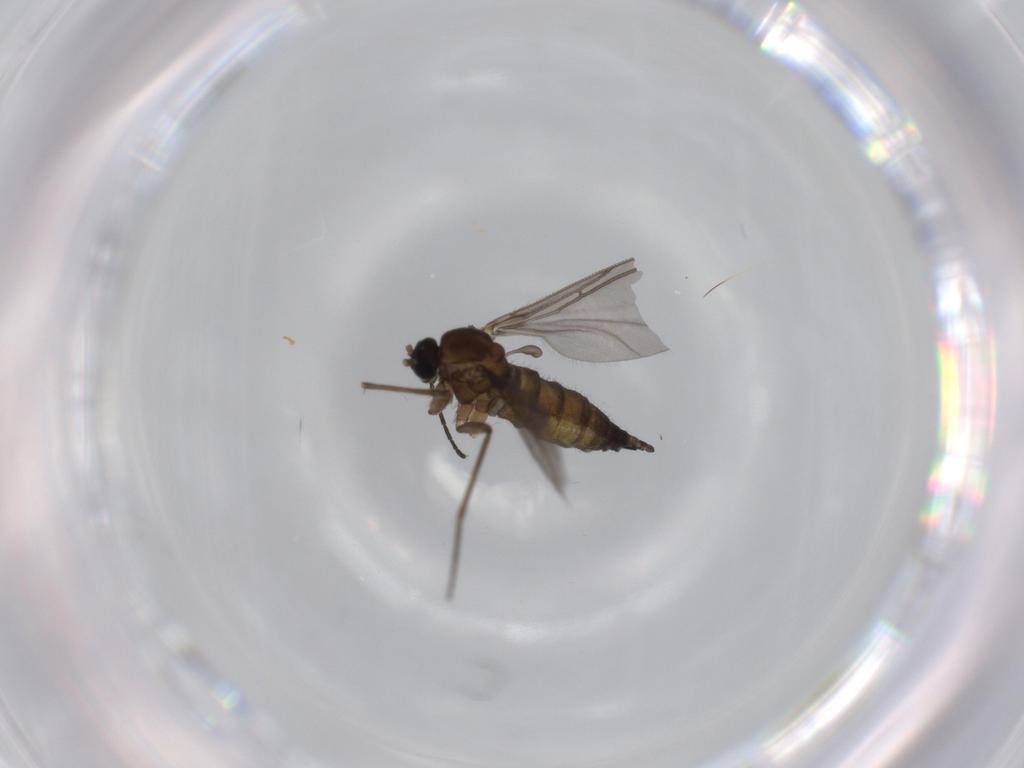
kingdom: Animalia
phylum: Arthropoda
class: Insecta
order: Diptera
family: Sciaridae
